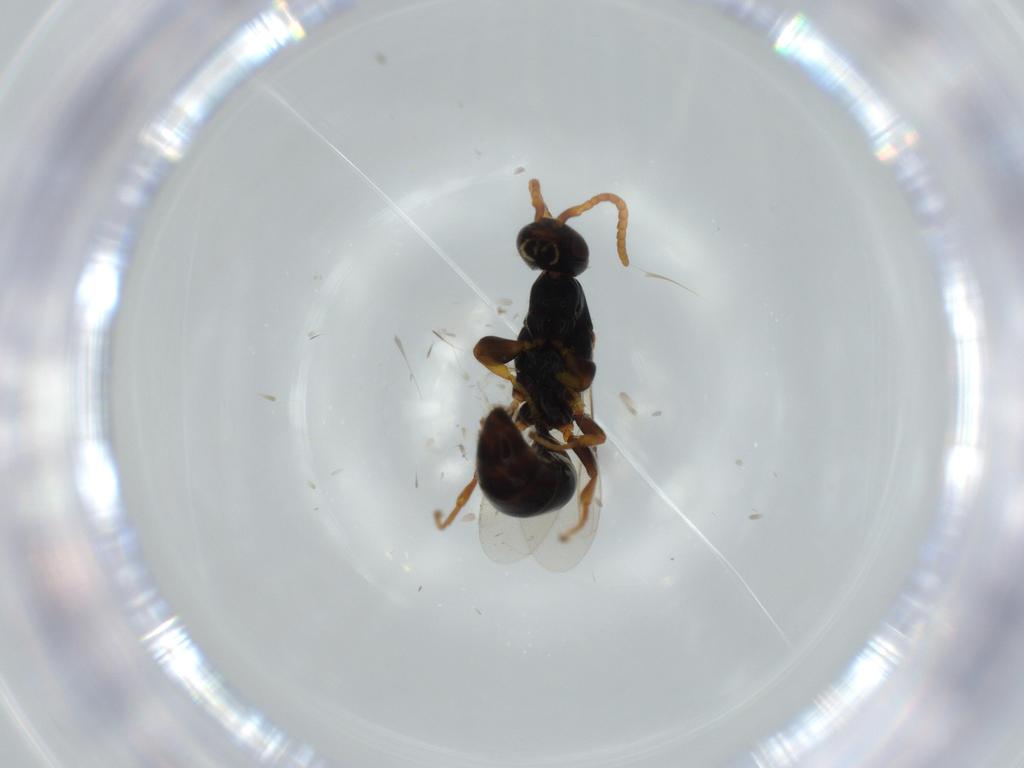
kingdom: Animalia
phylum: Arthropoda
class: Insecta
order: Hymenoptera
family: Bethylidae
